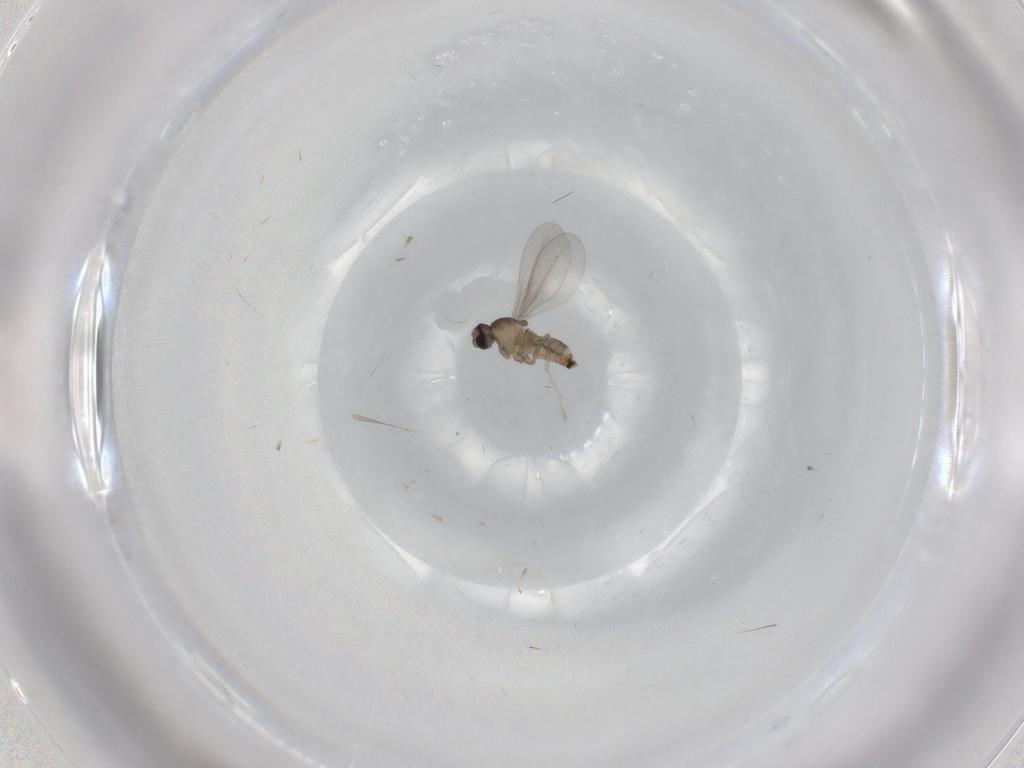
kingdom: Animalia
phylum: Arthropoda
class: Insecta
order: Diptera
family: Cecidomyiidae
